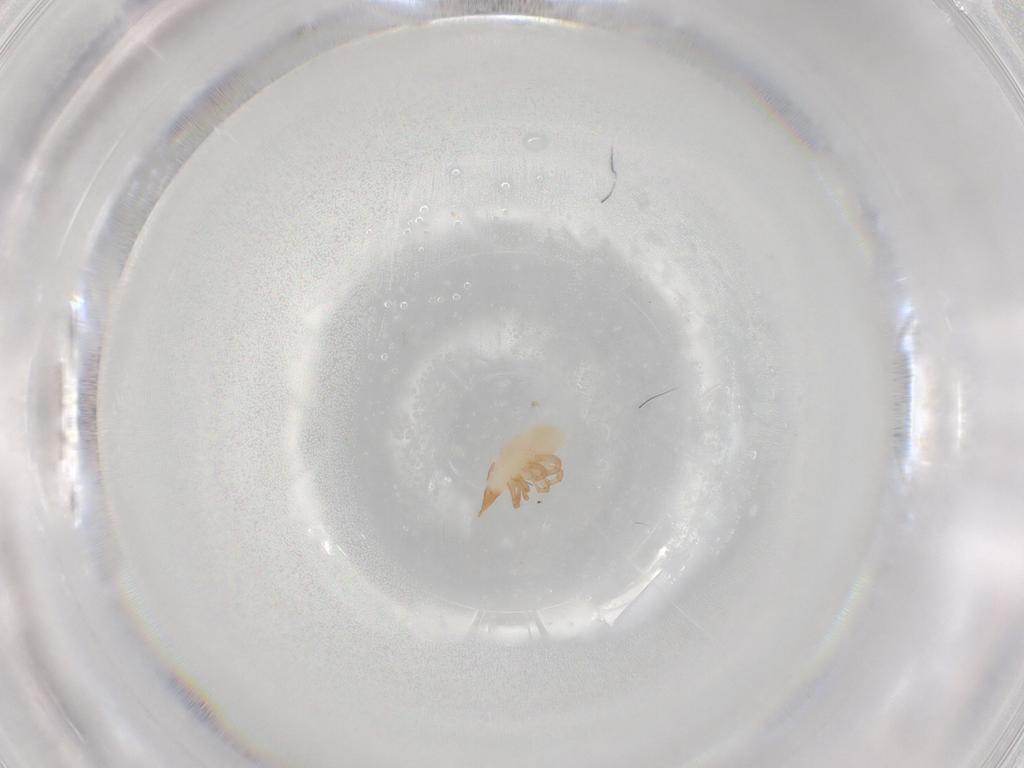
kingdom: Animalia
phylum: Arthropoda
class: Arachnida
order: Trombidiformes
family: Bdellidae
